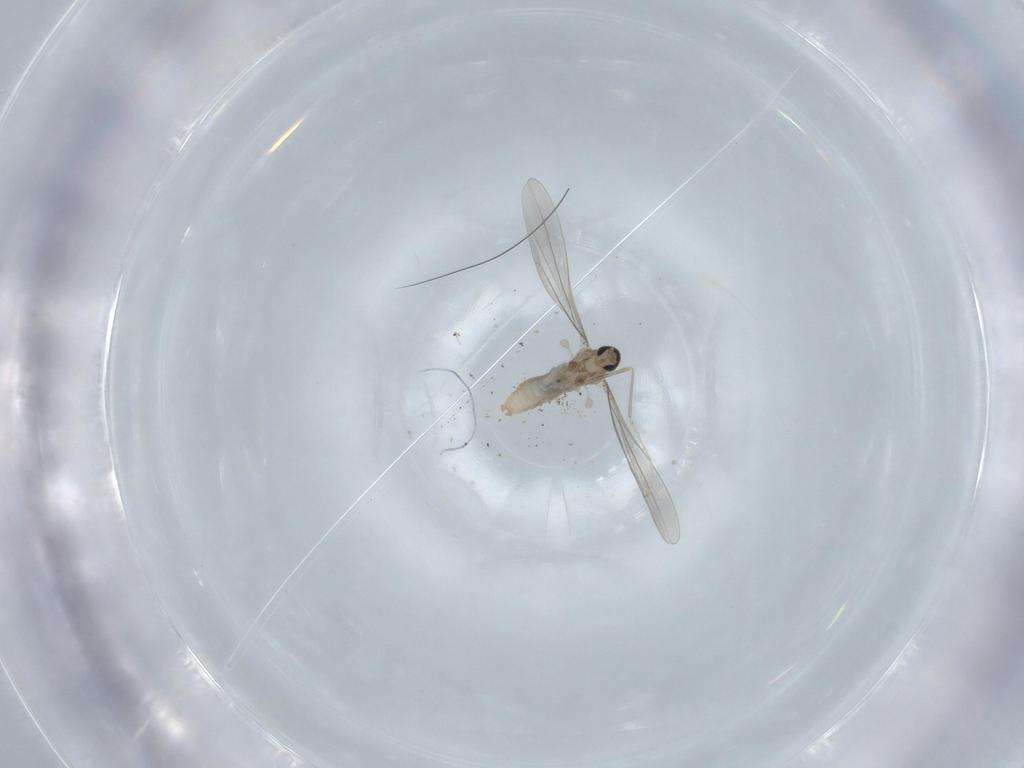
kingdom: Animalia
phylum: Arthropoda
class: Insecta
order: Diptera
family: Cecidomyiidae
